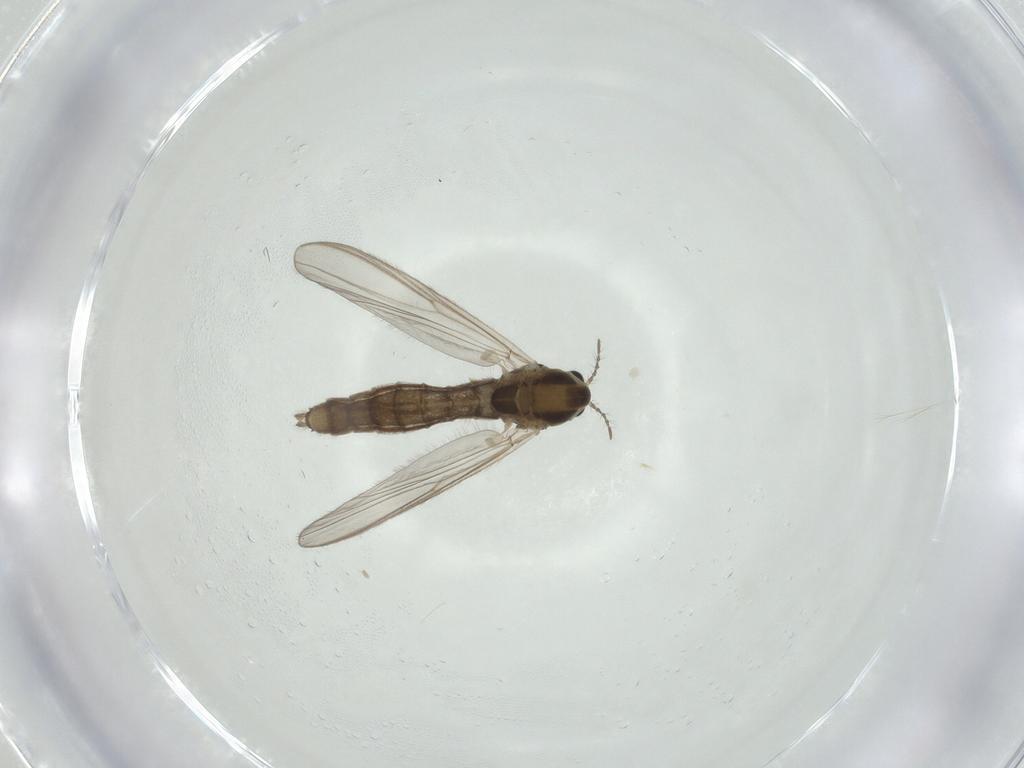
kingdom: Animalia
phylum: Arthropoda
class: Insecta
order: Diptera
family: Chironomidae
